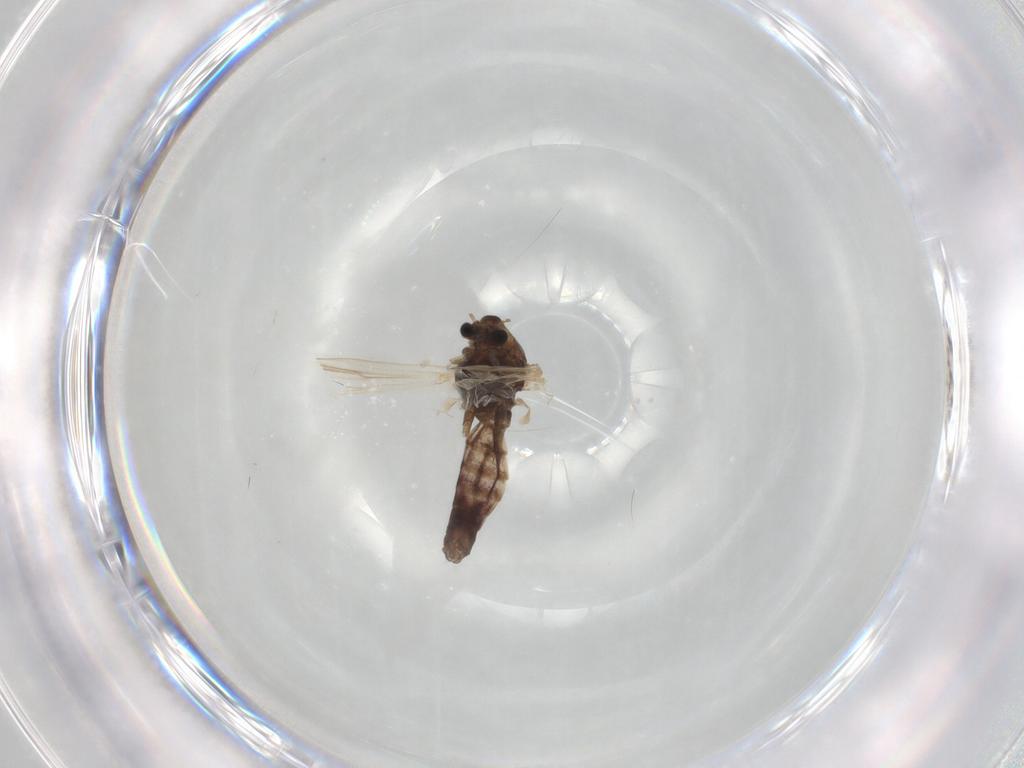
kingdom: Animalia
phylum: Arthropoda
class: Insecta
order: Diptera
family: Chironomidae
